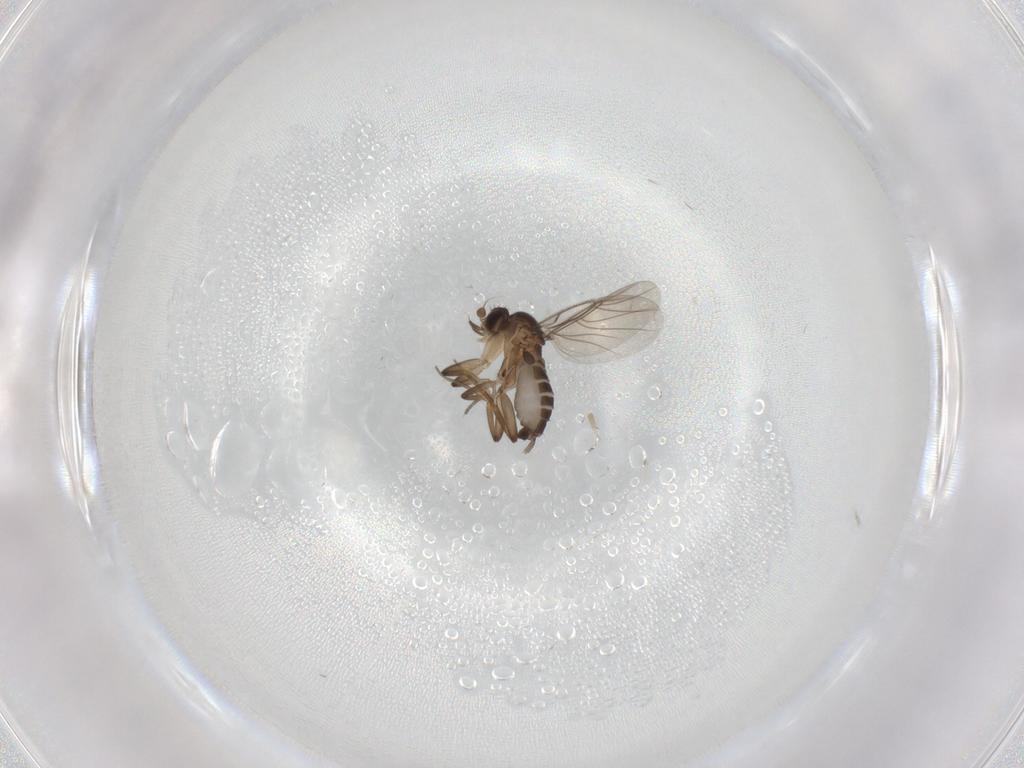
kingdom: Animalia
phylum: Arthropoda
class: Insecta
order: Diptera
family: Phoridae
